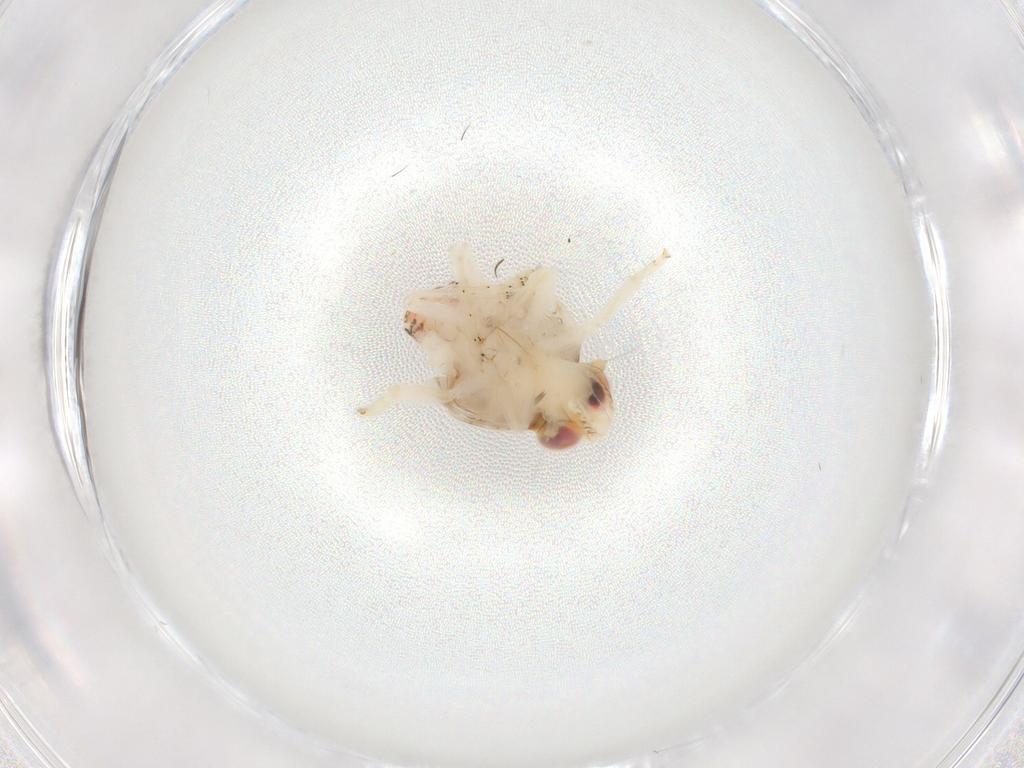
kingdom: Animalia
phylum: Arthropoda
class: Insecta
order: Hemiptera
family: Nogodinidae
